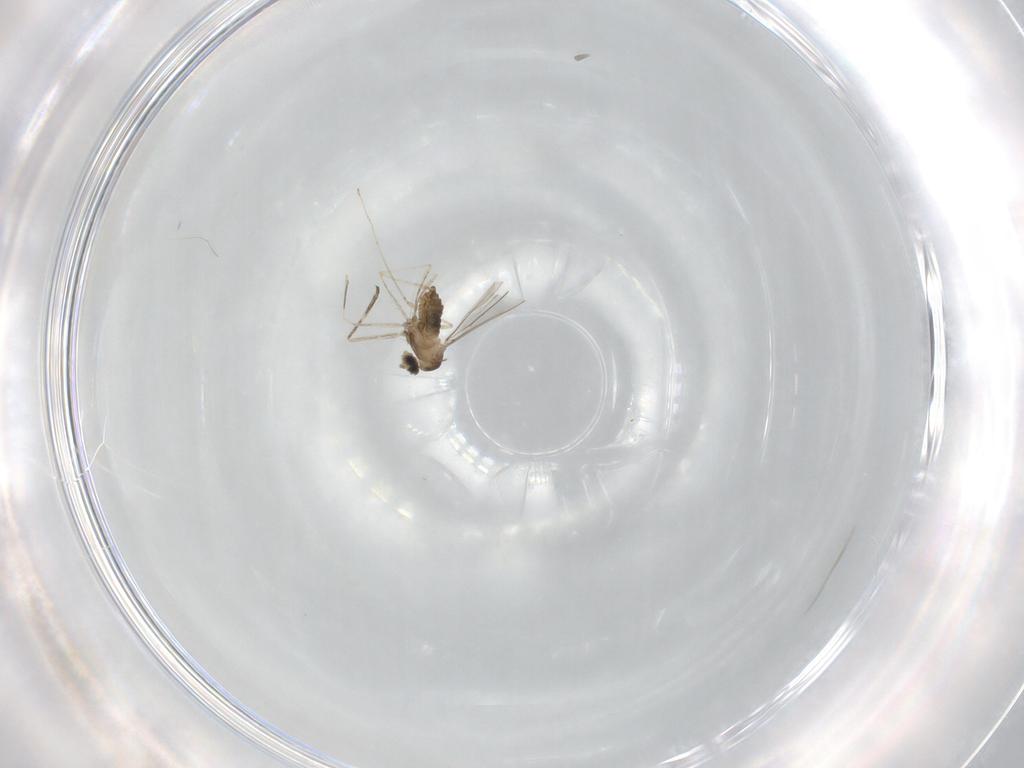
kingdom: Animalia
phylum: Arthropoda
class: Insecta
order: Diptera
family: Cecidomyiidae
